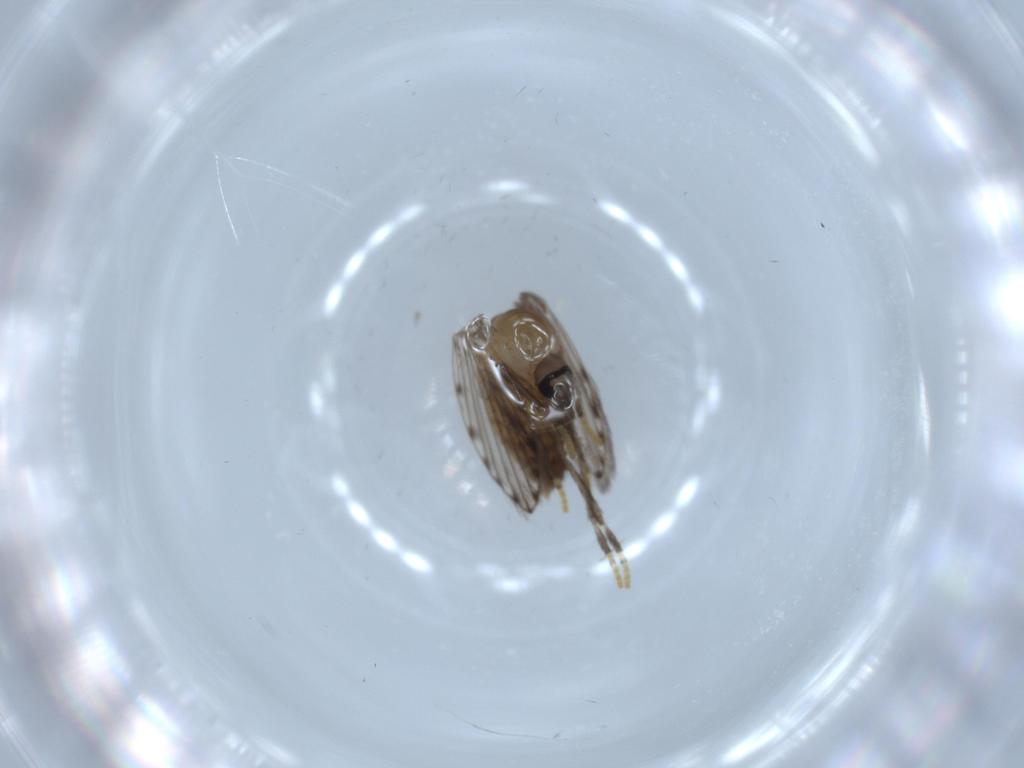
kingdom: Animalia
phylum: Arthropoda
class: Insecta
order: Diptera
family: Psychodidae
